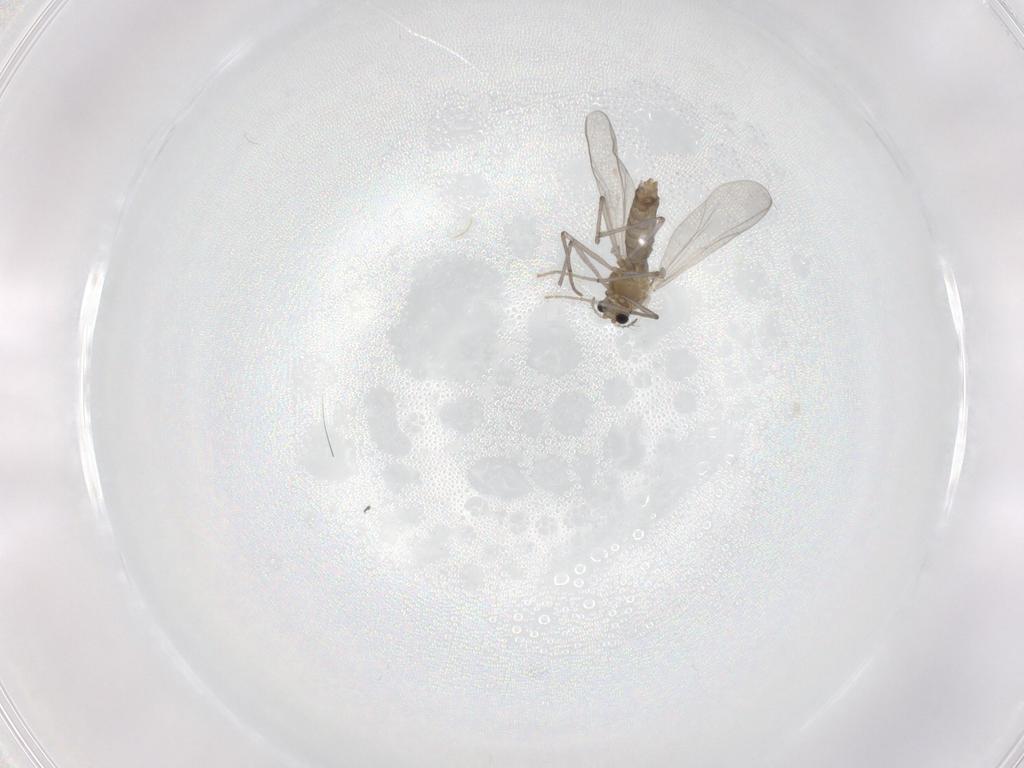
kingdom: Animalia
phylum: Arthropoda
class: Insecta
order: Diptera
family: Chironomidae
